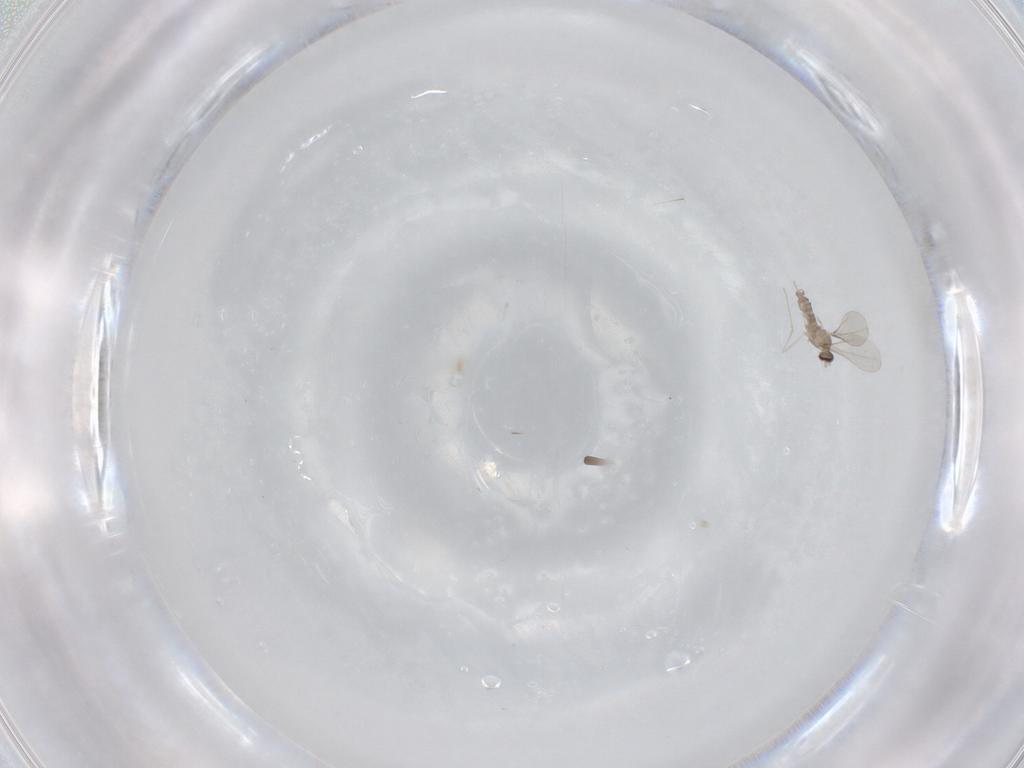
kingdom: Animalia
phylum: Arthropoda
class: Insecta
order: Diptera
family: Cecidomyiidae
